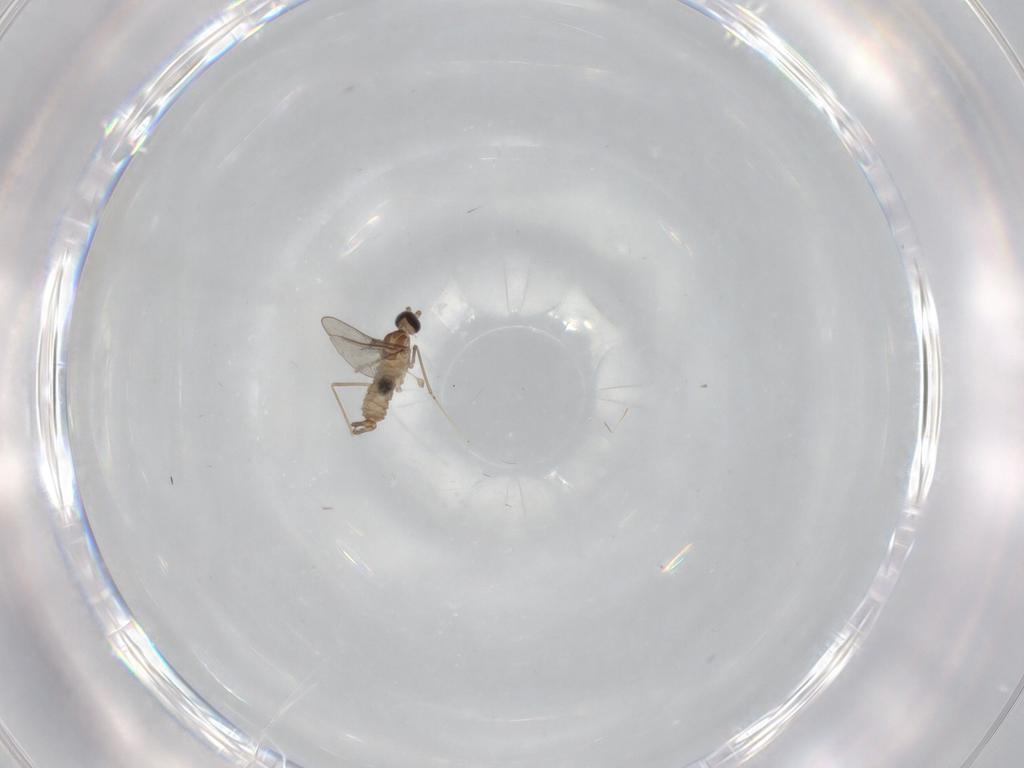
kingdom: Animalia
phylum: Arthropoda
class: Insecta
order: Diptera
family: Cecidomyiidae
